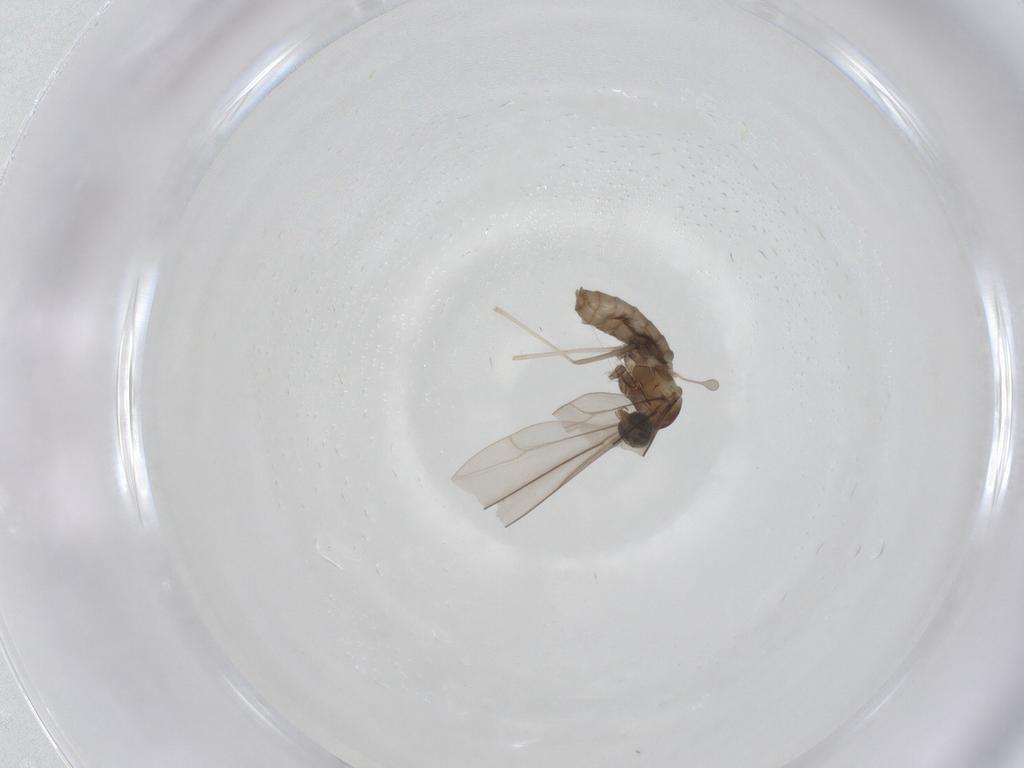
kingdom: Animalia
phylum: Arthropoda
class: Insecta
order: Diptera
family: Limoniidae
